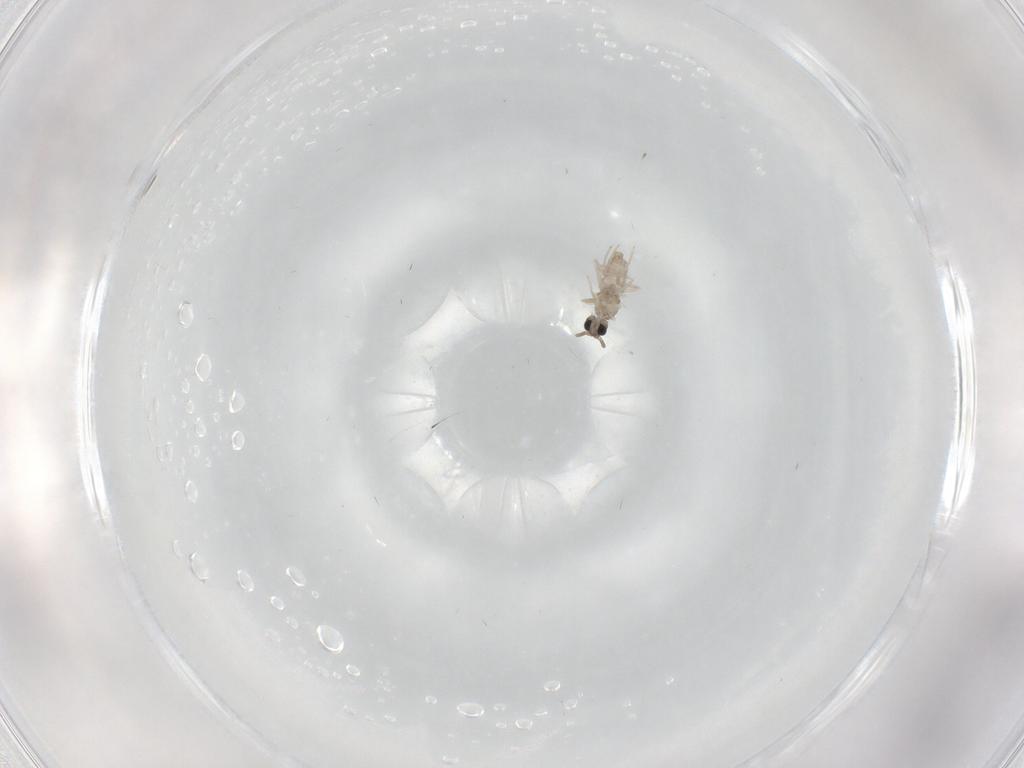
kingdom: Animalia
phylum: Arthropoda
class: Insecta
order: Diptera
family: Cecidomyiidae
